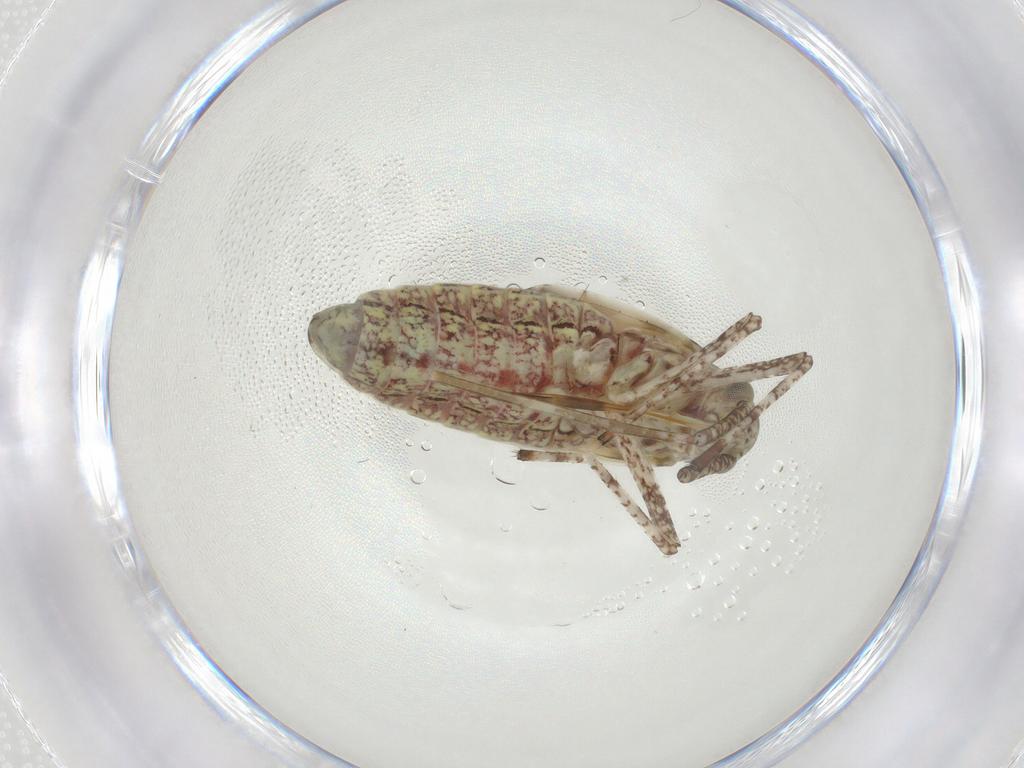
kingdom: Animalia
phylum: Arthropoda
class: Insecta
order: Hemiptera
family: Miridae
